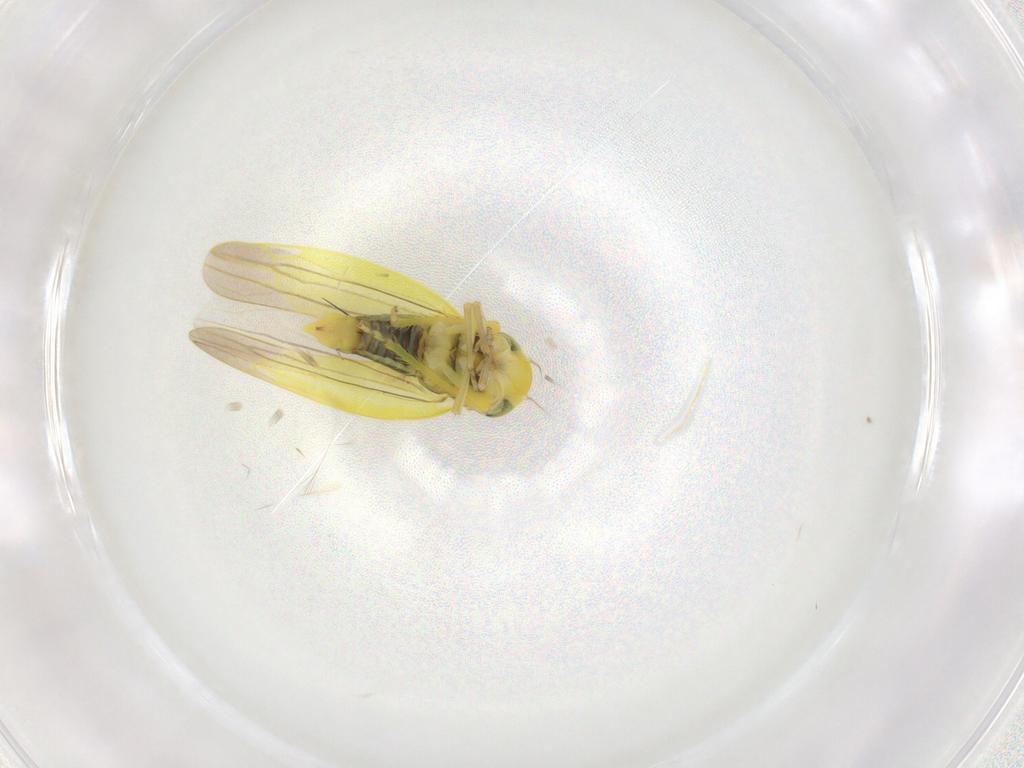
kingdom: Animalia
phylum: Arthropoda
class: Insecta
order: Hemiptera
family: Cicadellidae
